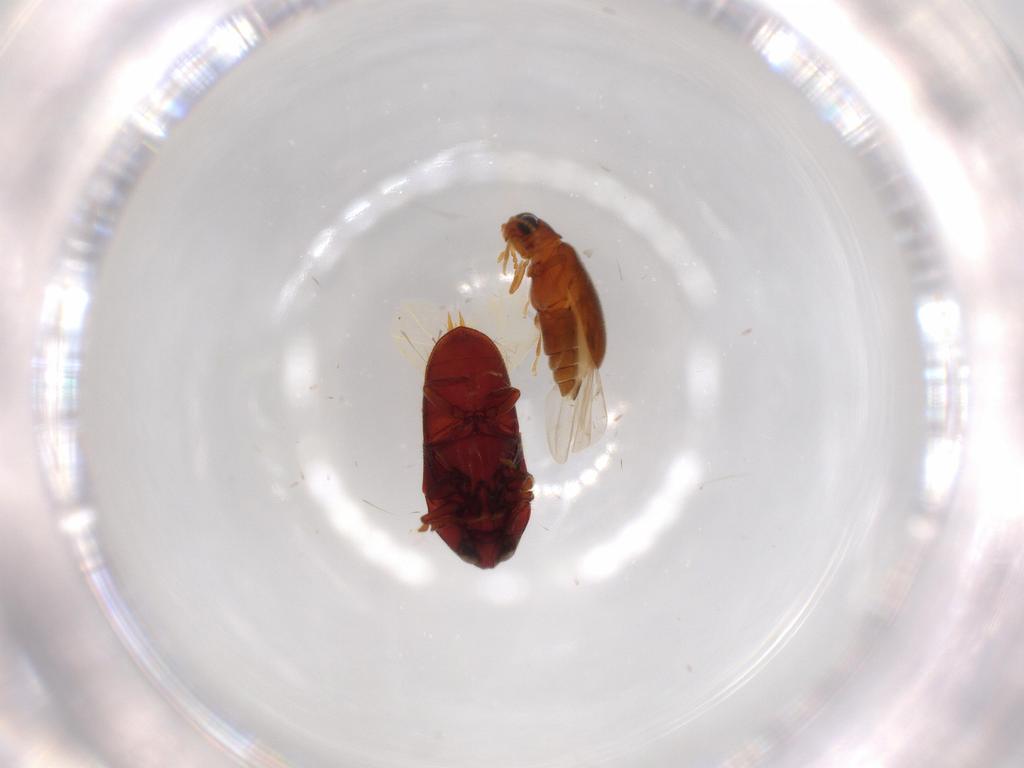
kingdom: Animalia
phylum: Arthropoda
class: Insecta
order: Coleoptera
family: Aderidae
